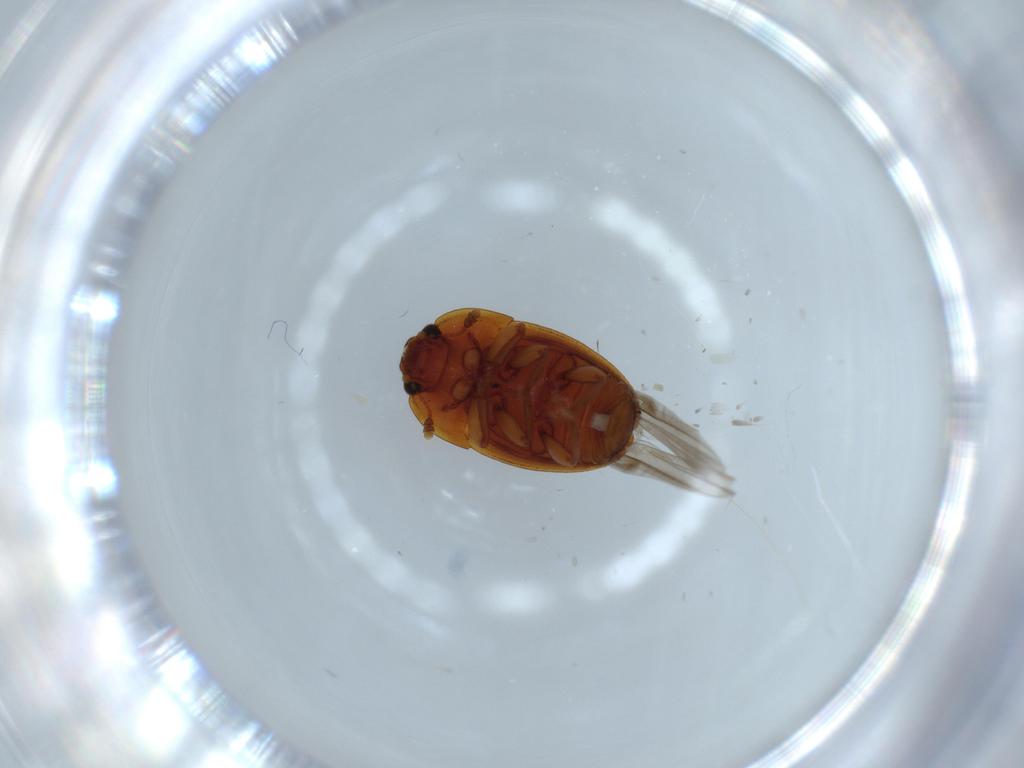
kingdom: Animalia
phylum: Arthropoda
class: Insecta
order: Coleoptera
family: Nitidulidae
